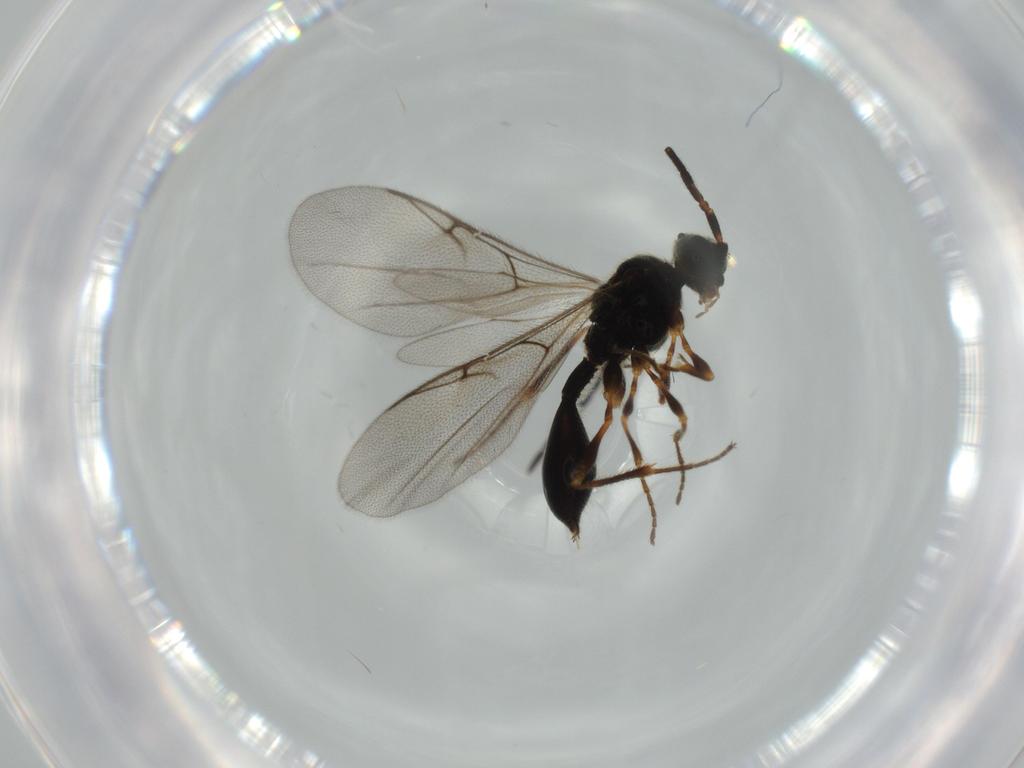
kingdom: Animalia
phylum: Arthropoda
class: Insecta
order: Hymenoptera
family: Diapriidae
